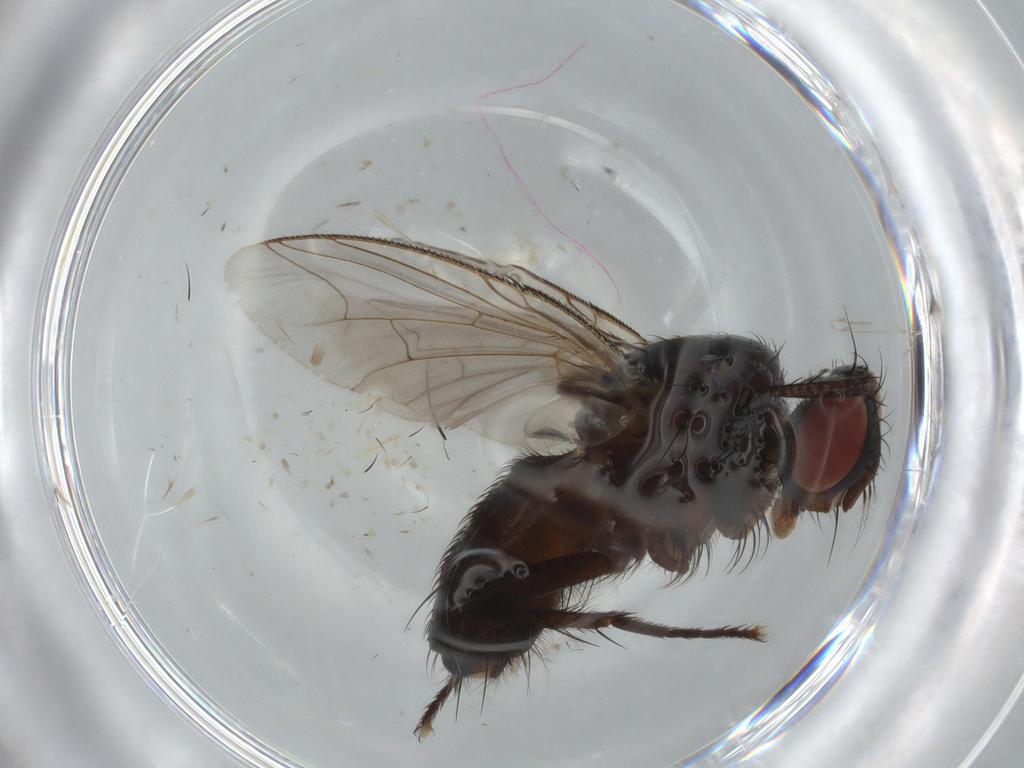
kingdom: Animalia
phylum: Arthropoda
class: Insecta
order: Diptera
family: Sarcophagidae
